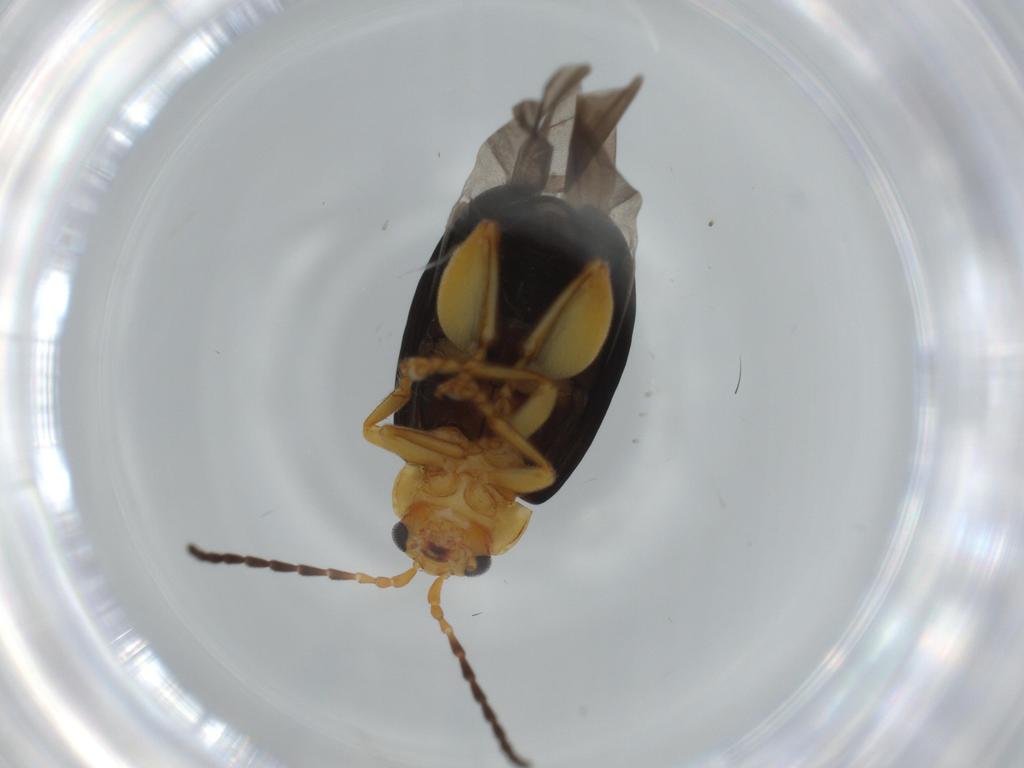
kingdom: Animalia
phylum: Arthropoda
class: Insecta
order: Coleoptera
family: Chrysomelidae
